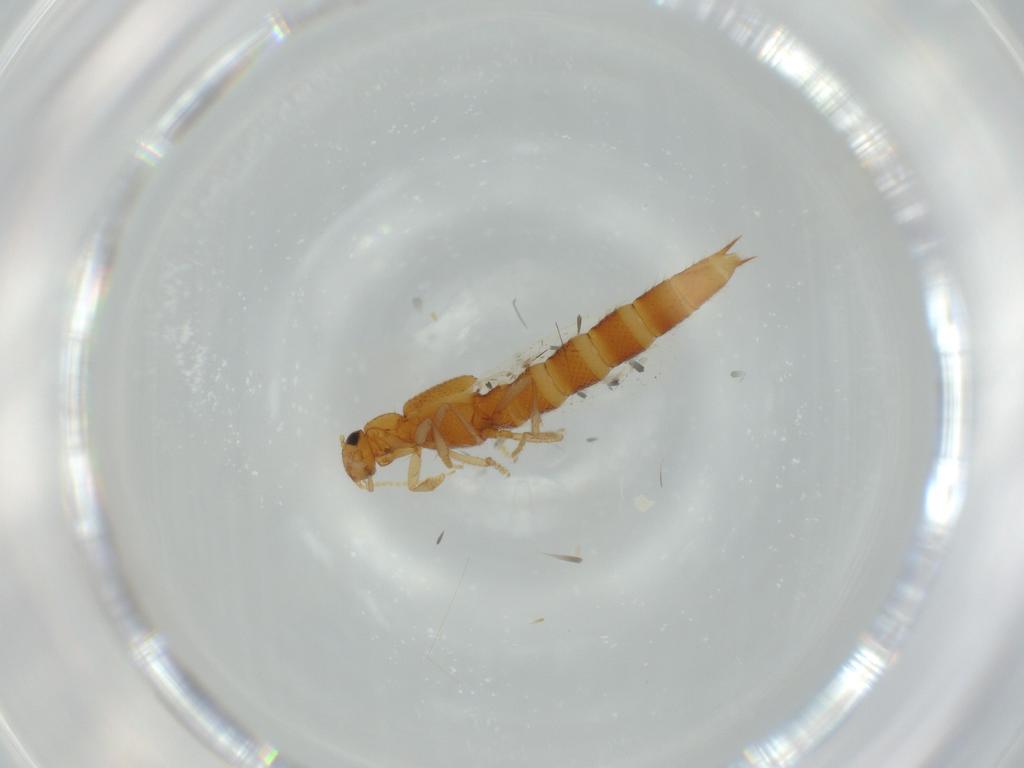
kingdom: Animalia
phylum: Arthropoda
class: Insecta
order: Coleoptera
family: Staphylinidae
